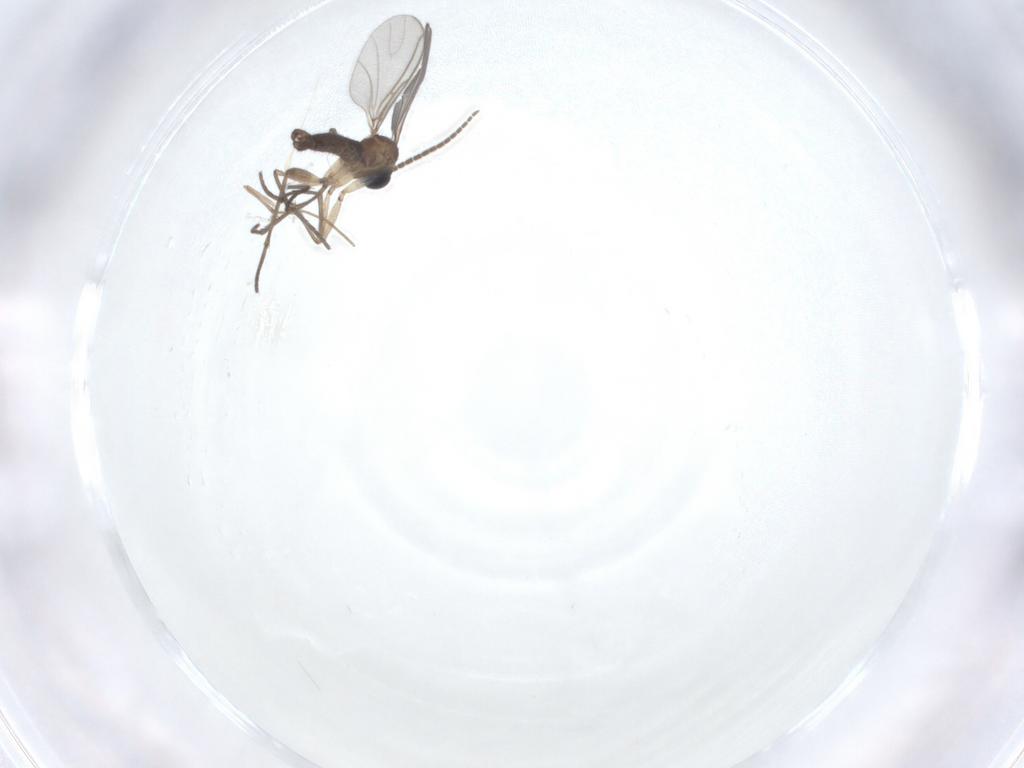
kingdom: Animalia
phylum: Arthropoda
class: Insecta
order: Diptera
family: Sciaridae
